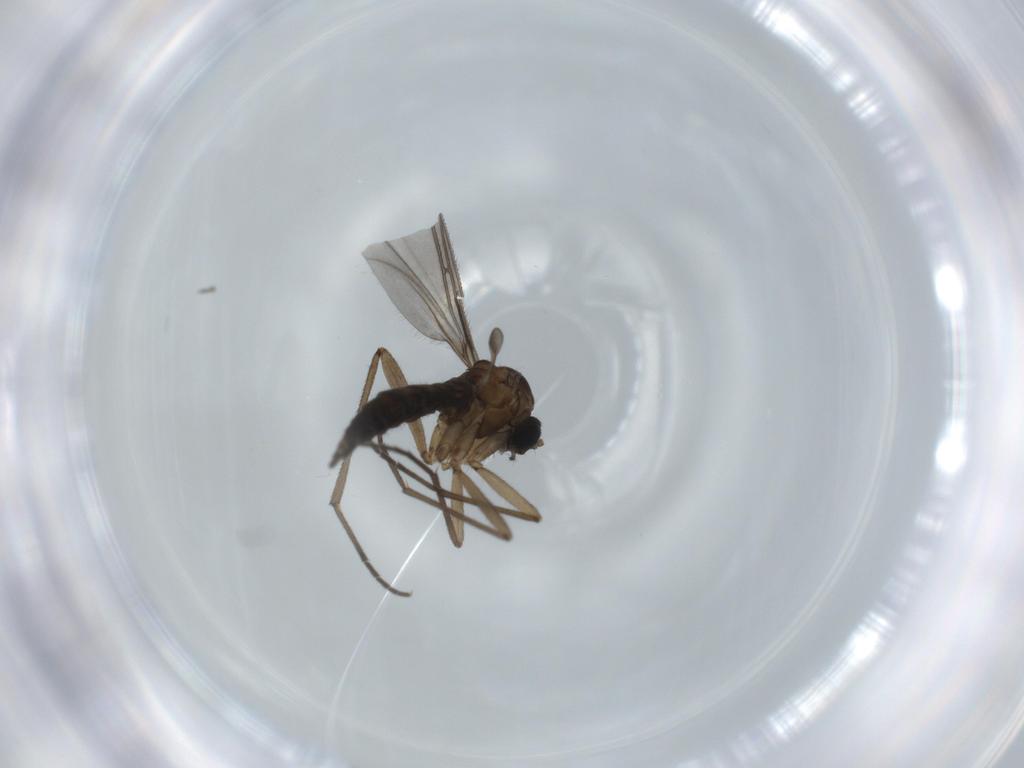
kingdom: Animalia
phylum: Arthropoda
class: Insecta
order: Diptera
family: Sciaridae
